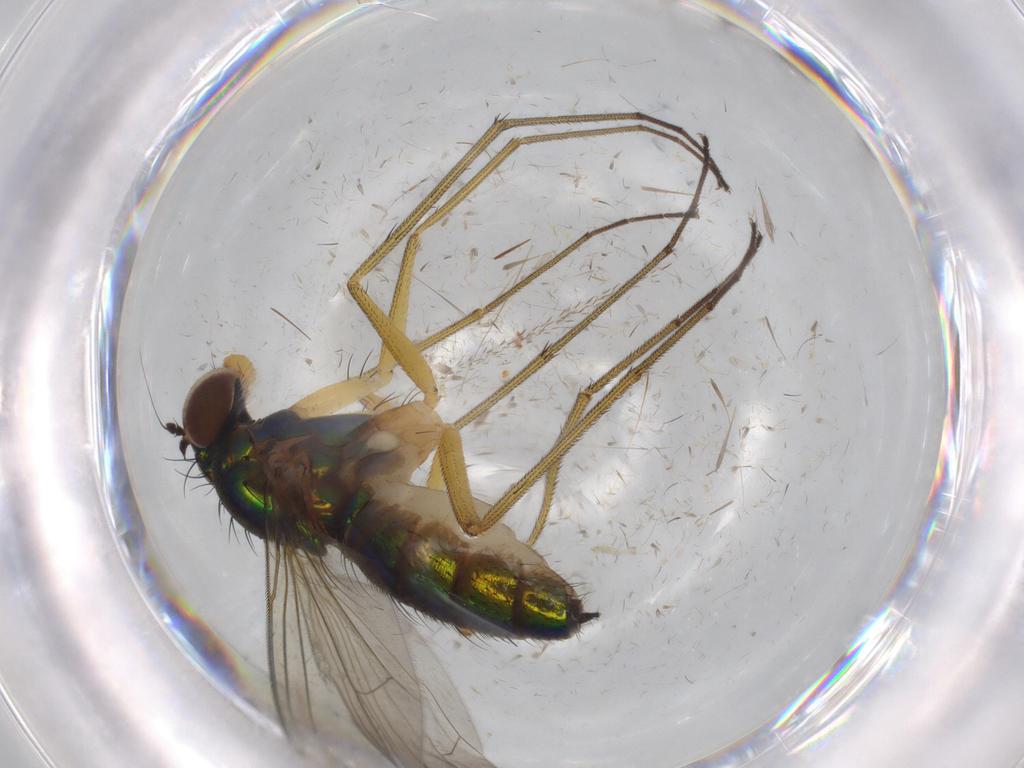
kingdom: Animalia
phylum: Arthropoda
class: Insecta
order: Diptera
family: Dolichopodidae
